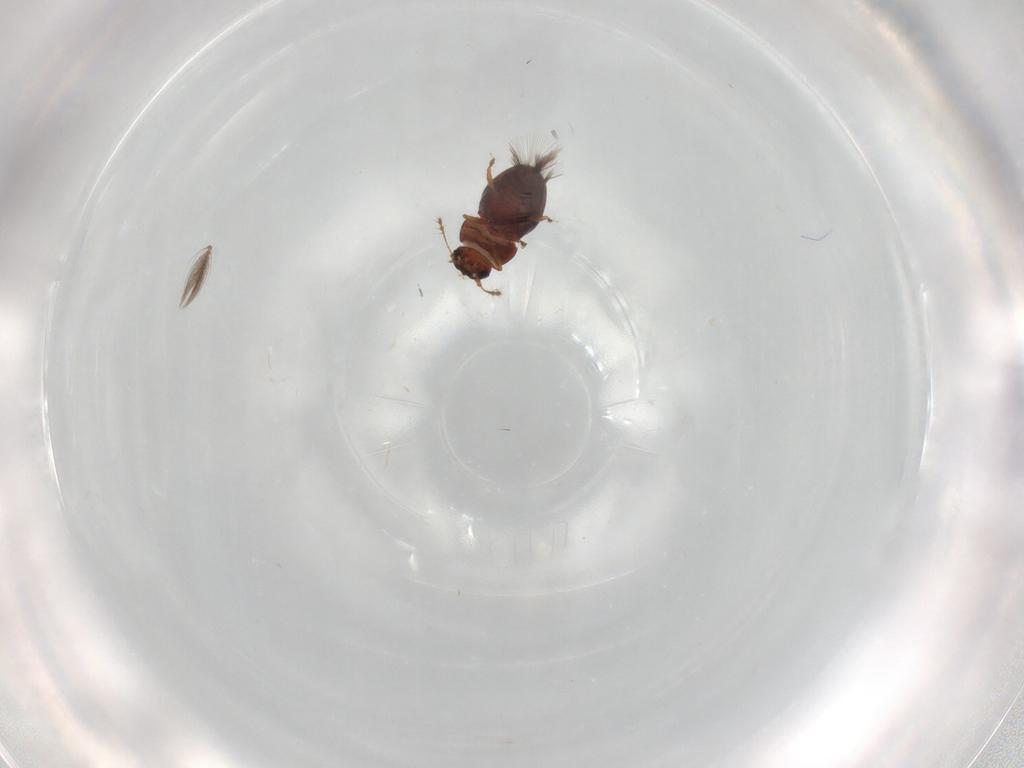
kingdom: Animalia
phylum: Arthropoda
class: Insecta
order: Coleoptera
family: Ptiliidae
